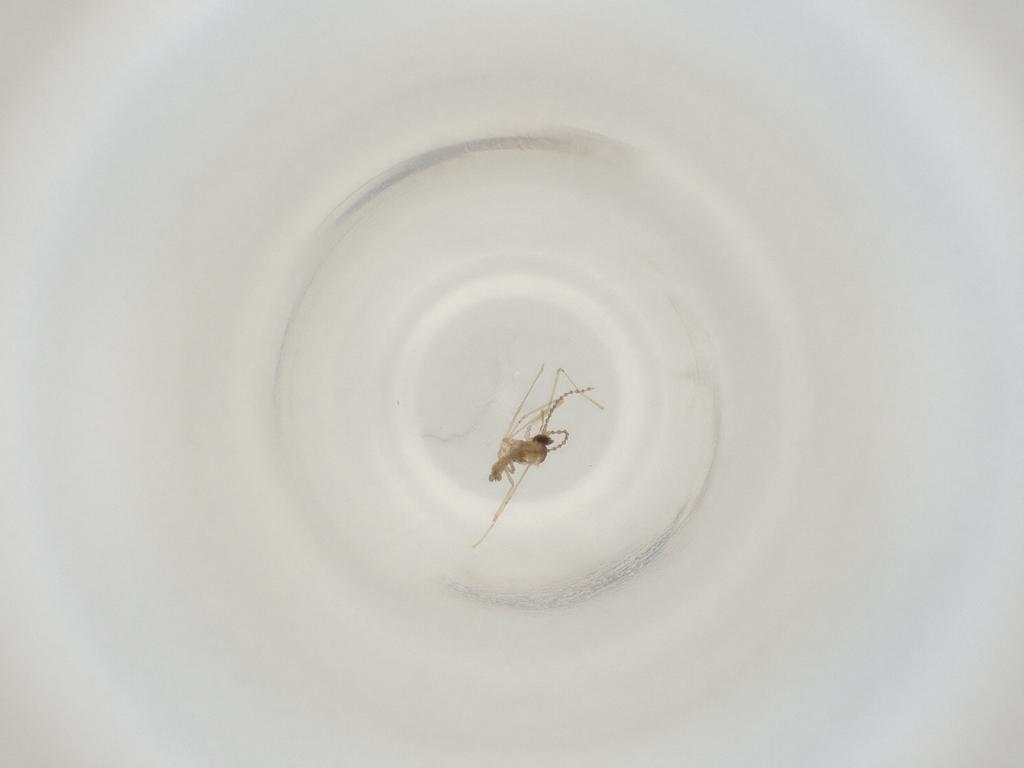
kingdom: Animalia
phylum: Arthropoda
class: Insecta
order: Diptera
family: Cecidomyiidae
